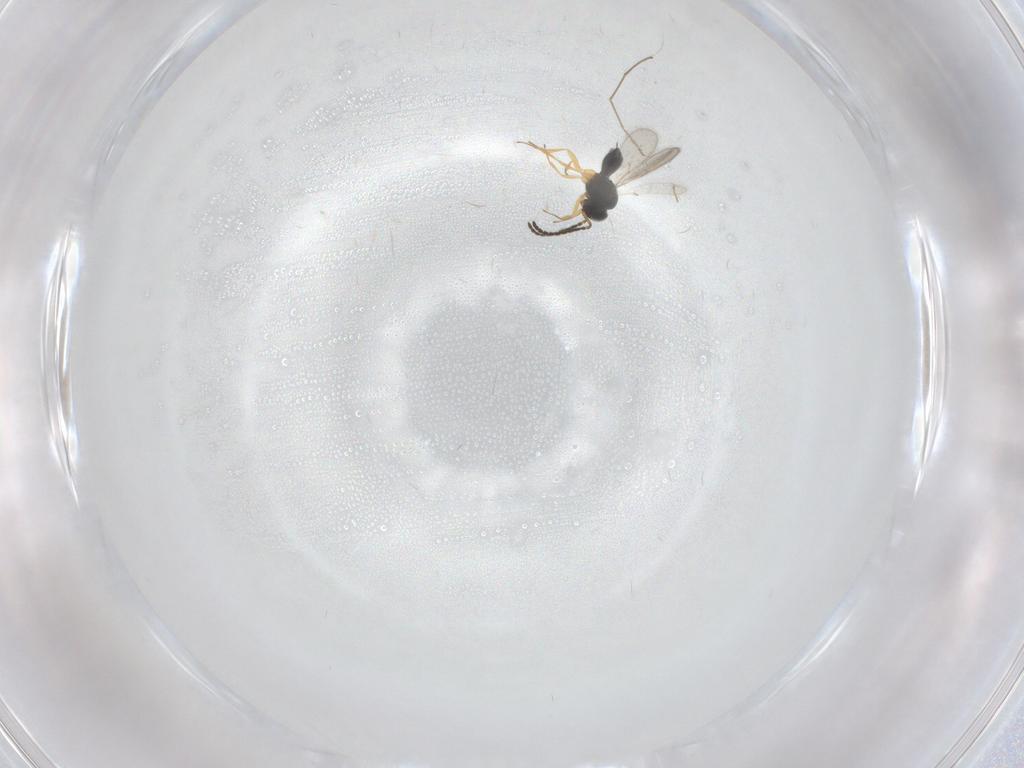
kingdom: Animalia
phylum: Arthropoda
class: Insecta
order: Hymenoptera
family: Scelionidae
